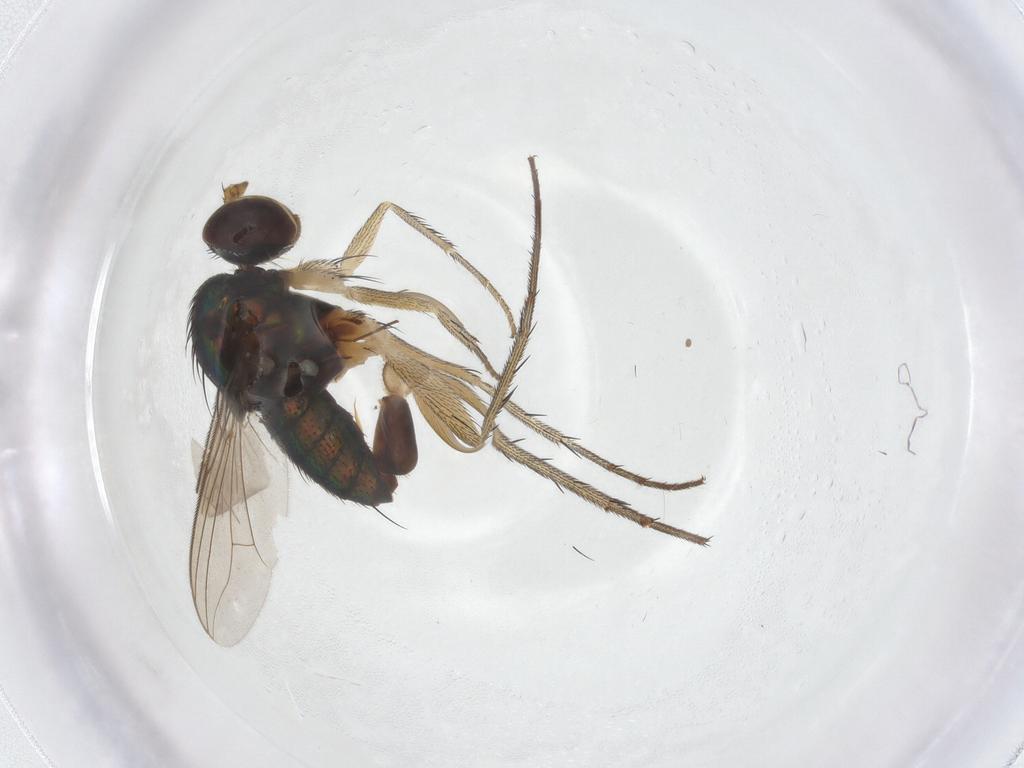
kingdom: Animalia
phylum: Arthropoda
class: Insecta
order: Diptera
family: Dolichopodidae
